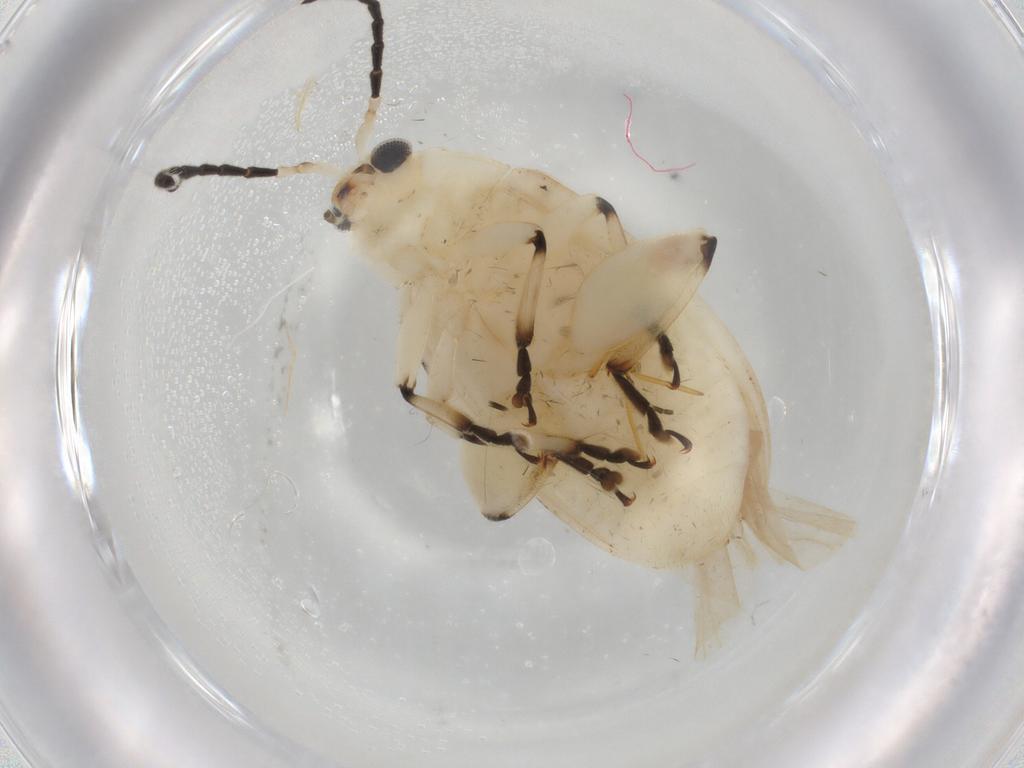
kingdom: Animalia
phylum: Arthropoda
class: Insecta
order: Coleoptera
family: Chrysomelidae
